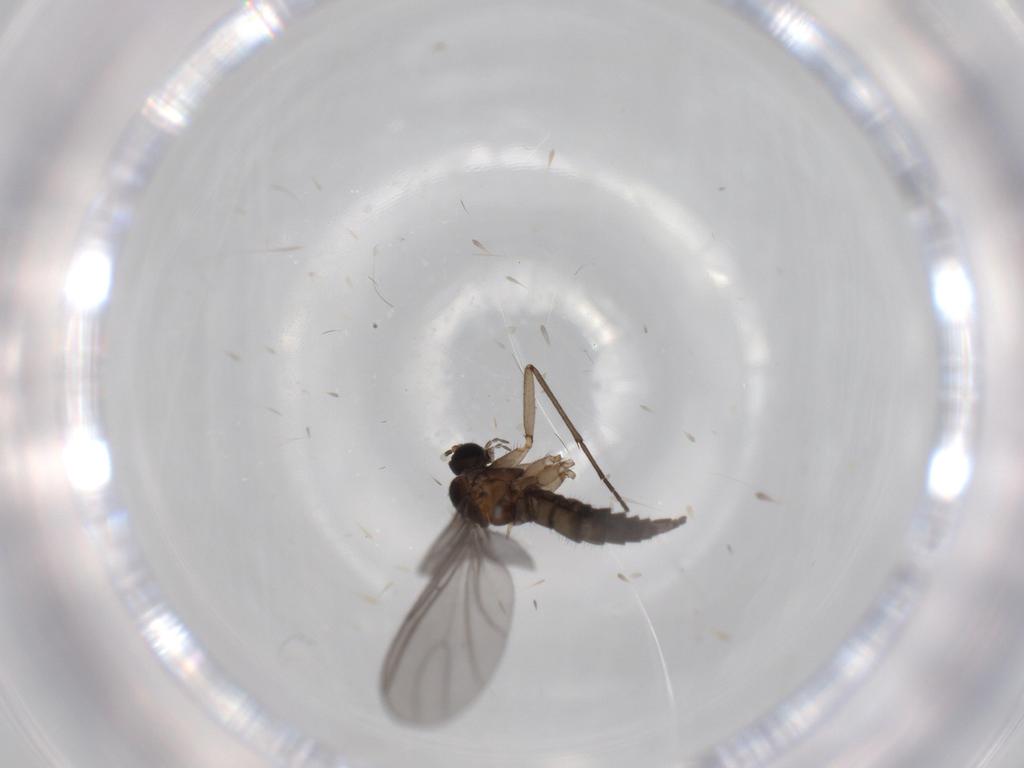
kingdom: Animalia
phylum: Arthropoda
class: Insecta
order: Diptera
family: Sciaridae
